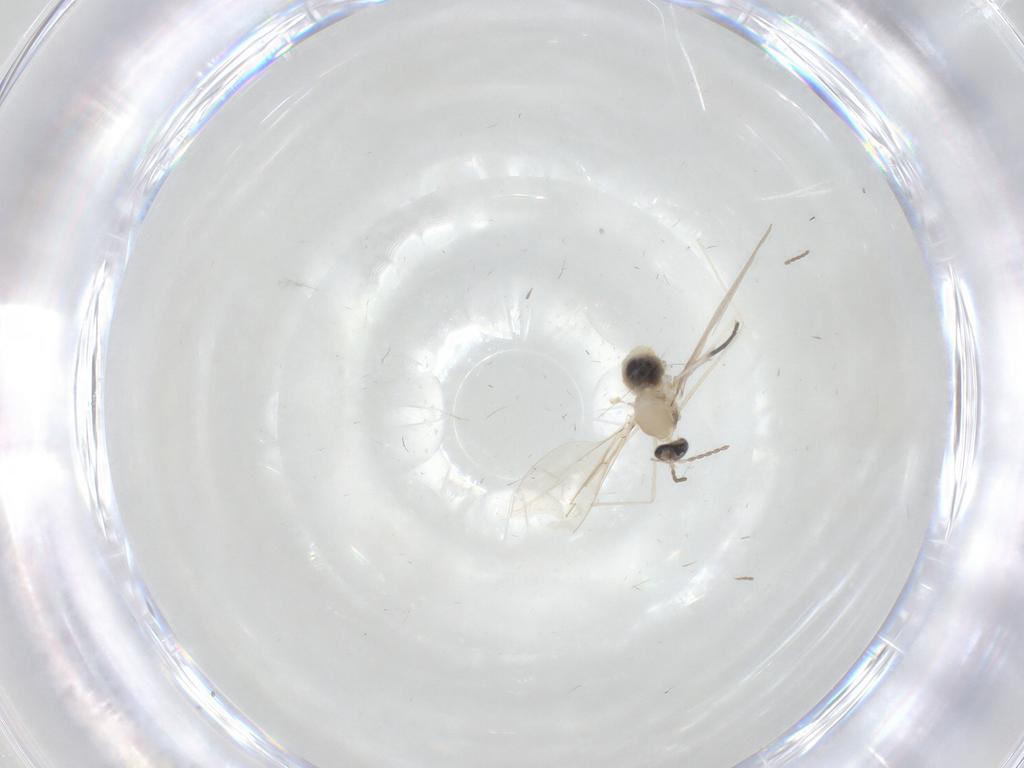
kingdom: Animalia
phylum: Arthropoda
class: Insecta
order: Diptera
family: Cecidomyiidae
